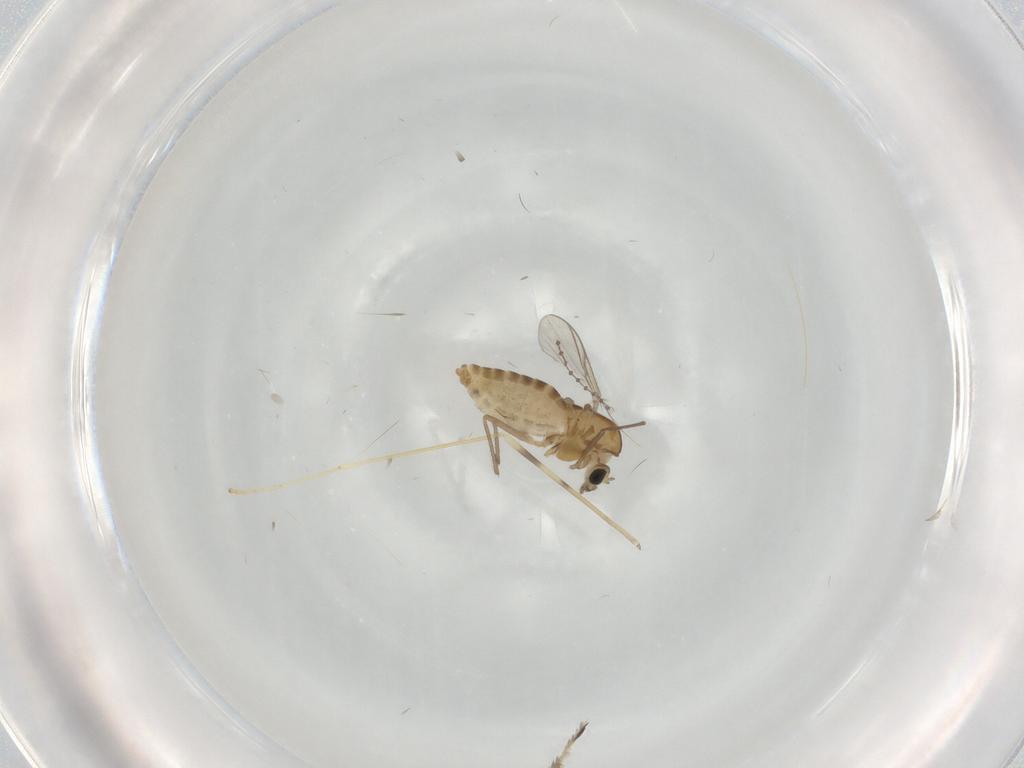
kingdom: Animalia
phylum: Arthropoda
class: Insecta
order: Diptera
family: Chironomidae
